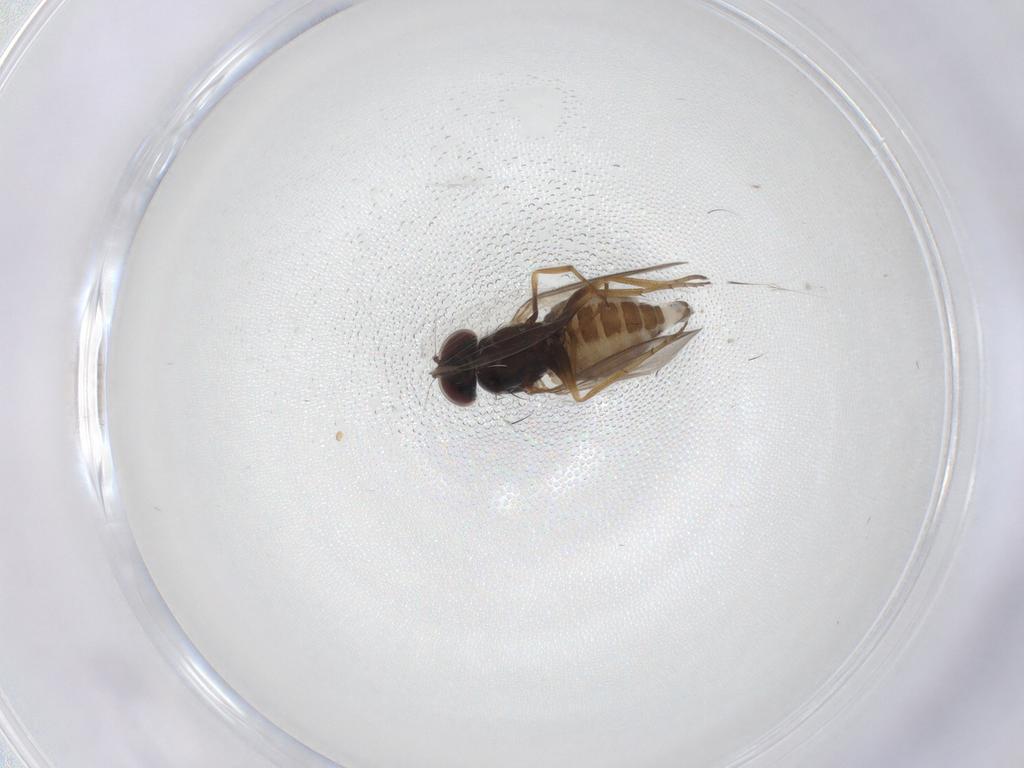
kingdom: Animalia
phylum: Arthropoda
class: Insecta
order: Diptera
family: Dolichopodidae
